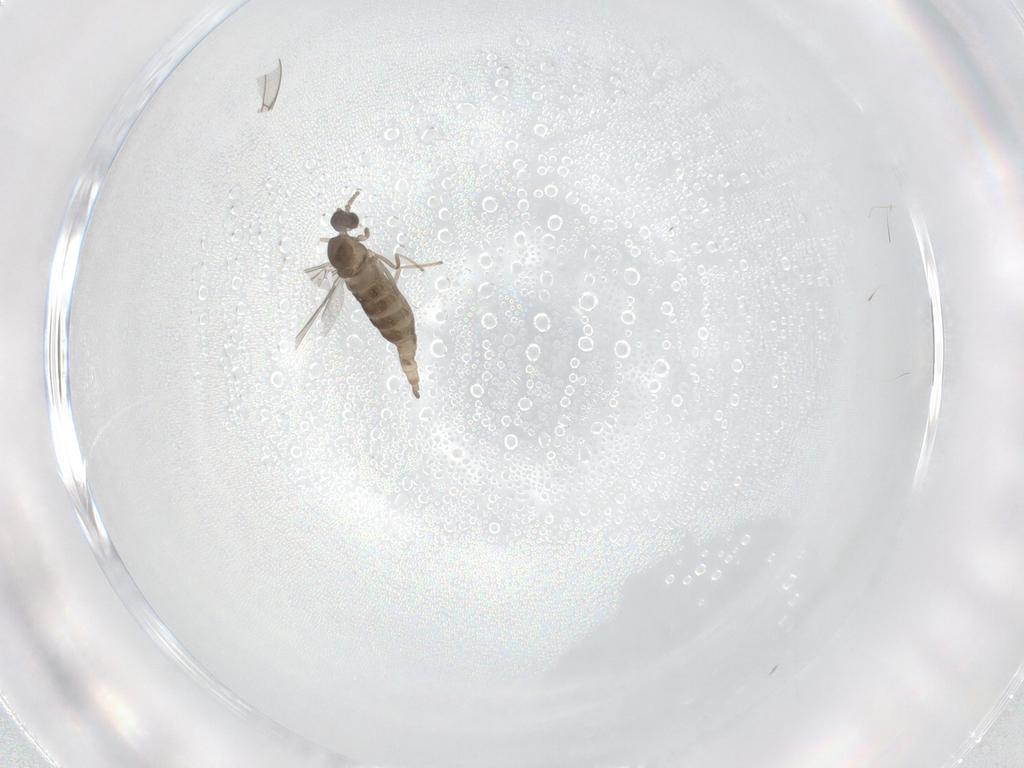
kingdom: Animalia
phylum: Arthropoda
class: Insecta
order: Diptera
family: Cecidomyiidae
